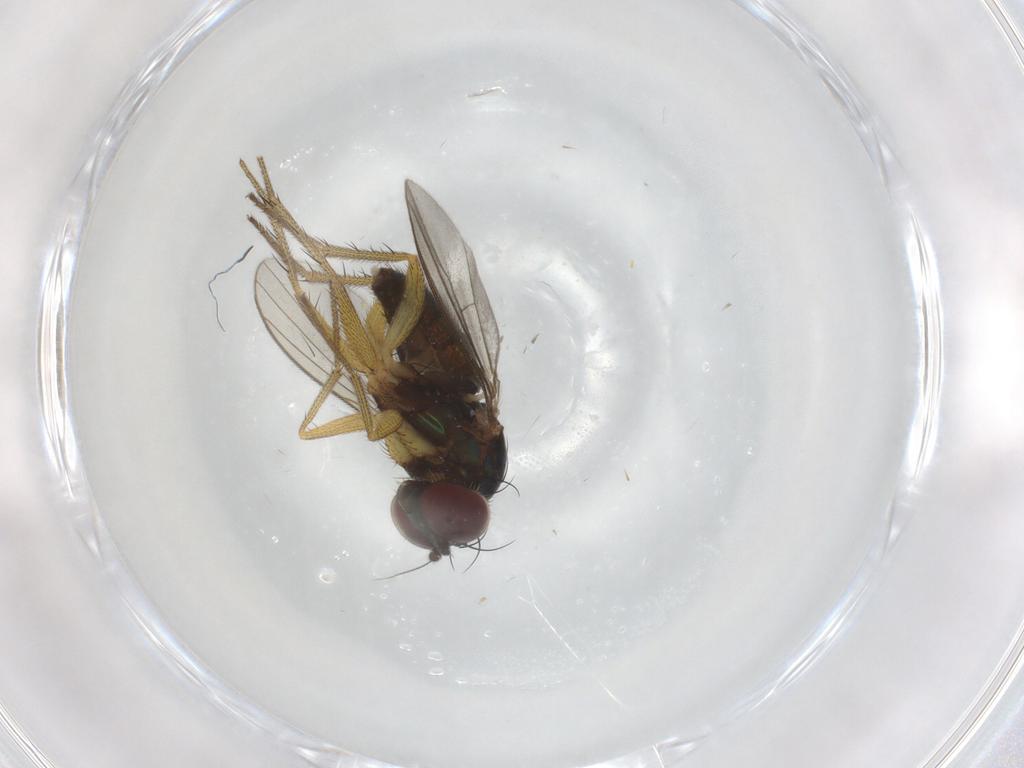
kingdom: Animalia
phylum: Arthropoda
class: Insecta
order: Diptera
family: Dolichopodidae
